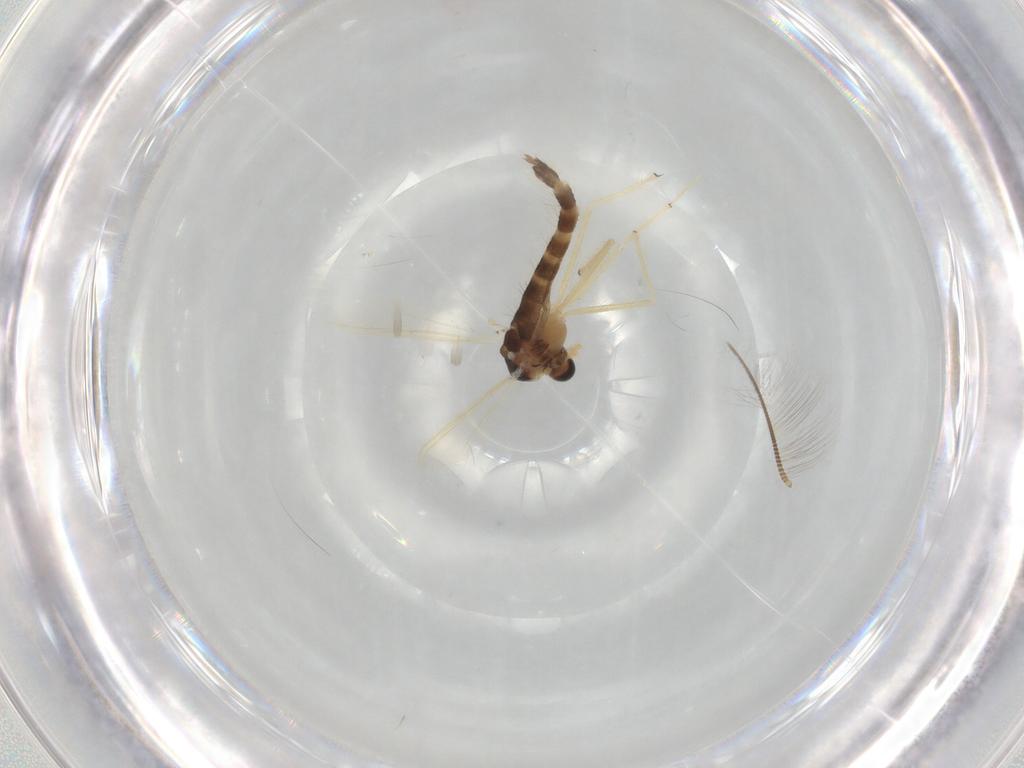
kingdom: Animalia
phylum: Arthropoda
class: Insecta
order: Diptera
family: Chironomidae
